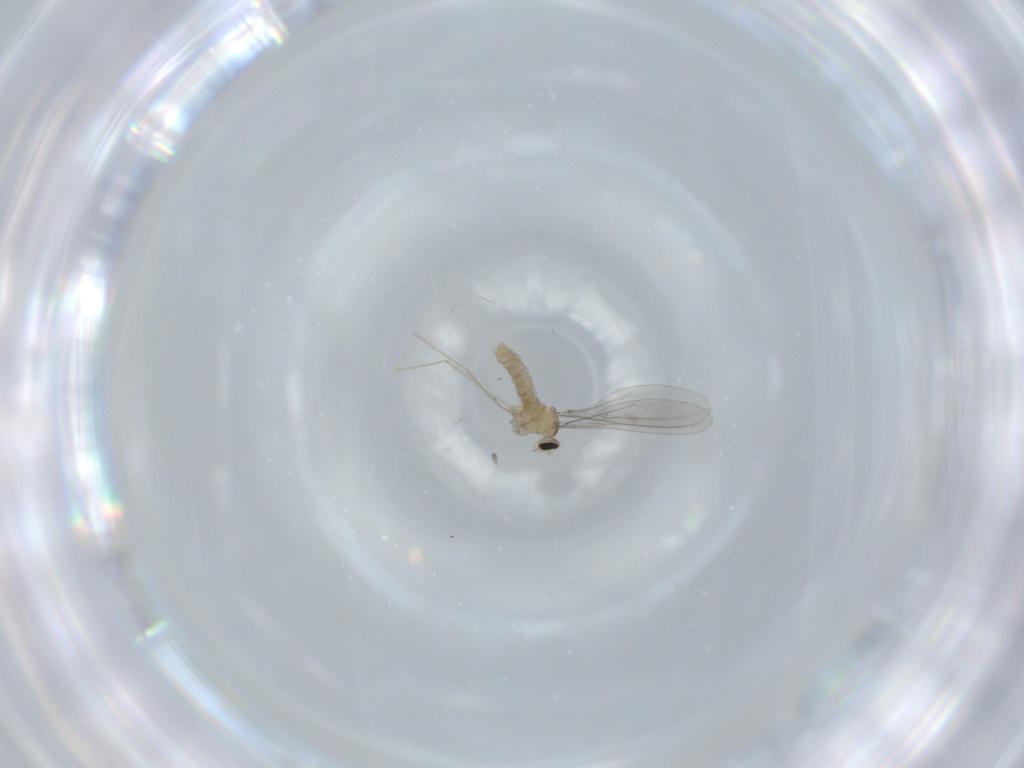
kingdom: Animalia
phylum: Arthropoda
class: Insecta
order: Diptera
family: Cecidomyiidae
